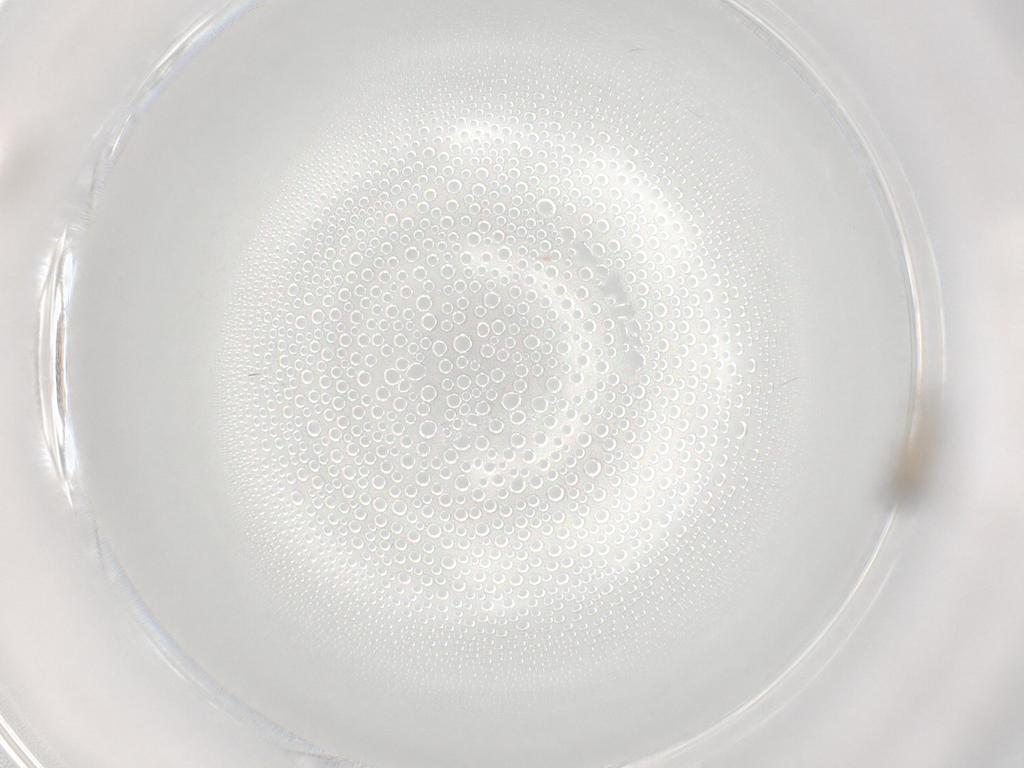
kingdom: Animalia
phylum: Arthropoda
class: Insecta
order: Diptera
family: Cecidomyiidae
